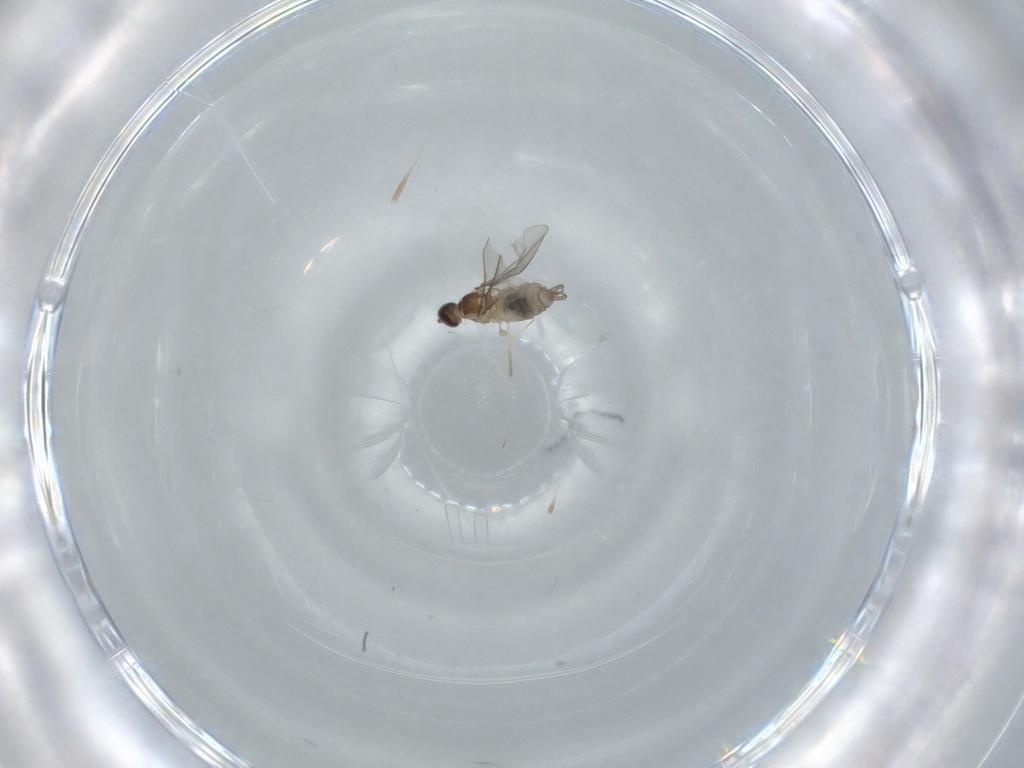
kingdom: Animalia
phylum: Arthropoda
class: Insecta
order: Diptera
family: Cecidomyiidae
